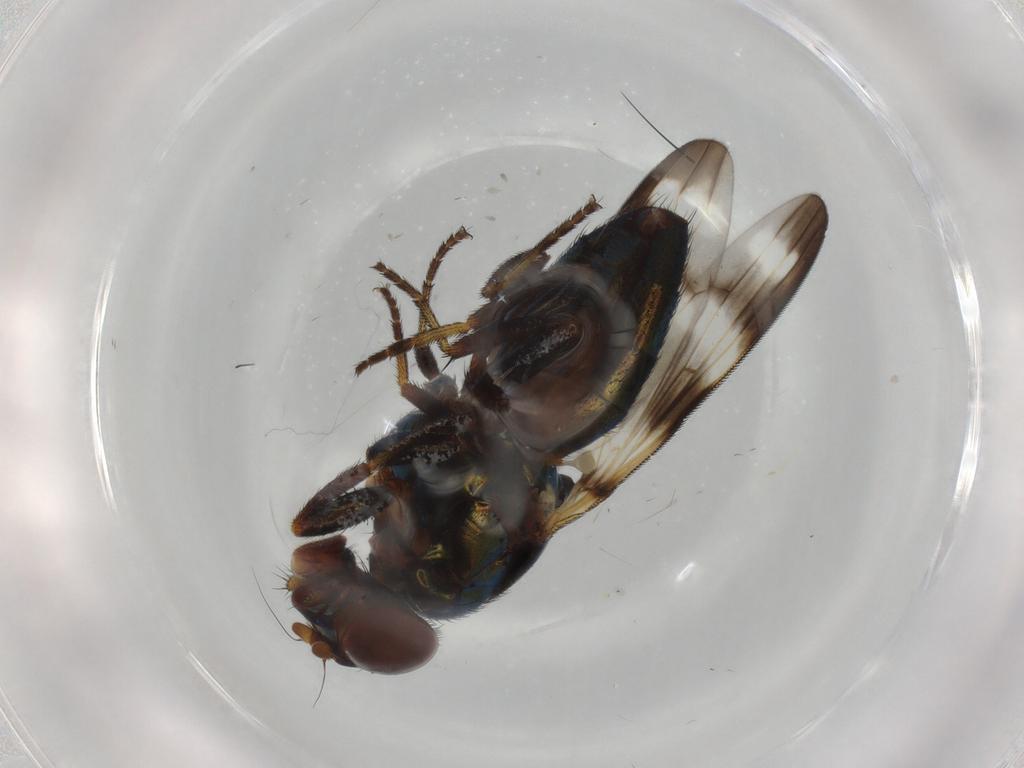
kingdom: Animalia
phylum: Arthropoda
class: Insecta
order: Diptera
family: Ulidiidae
